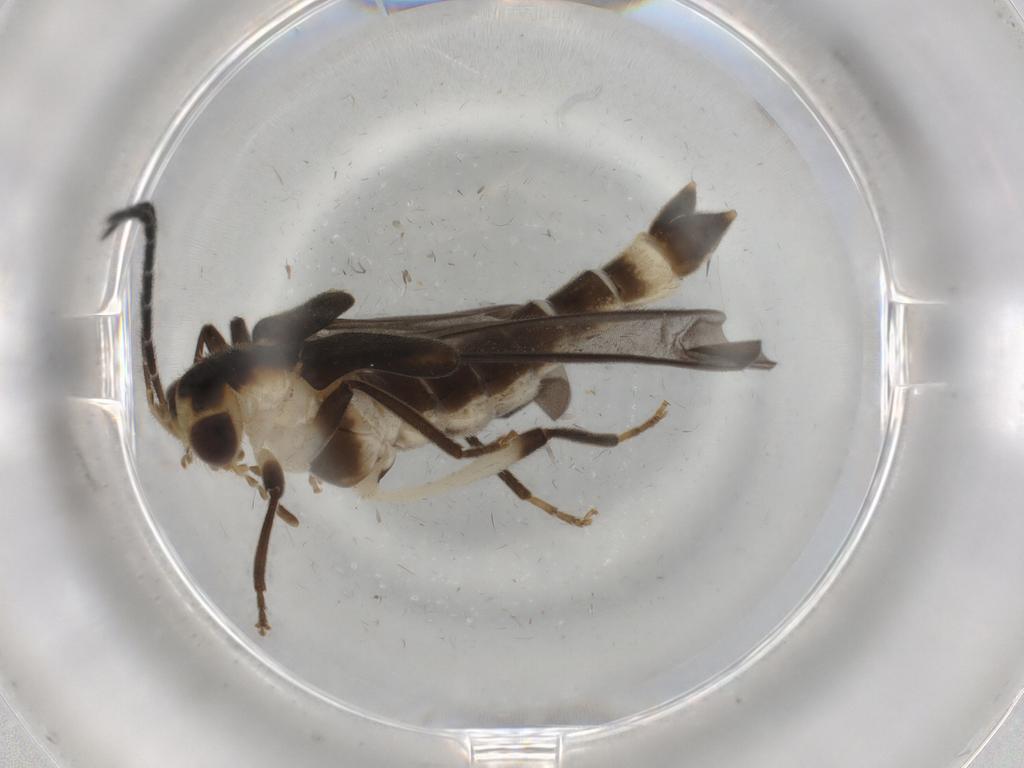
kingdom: Animalia
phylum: Arthropoda
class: Insecta
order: Coleoptera
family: Cantharidae
